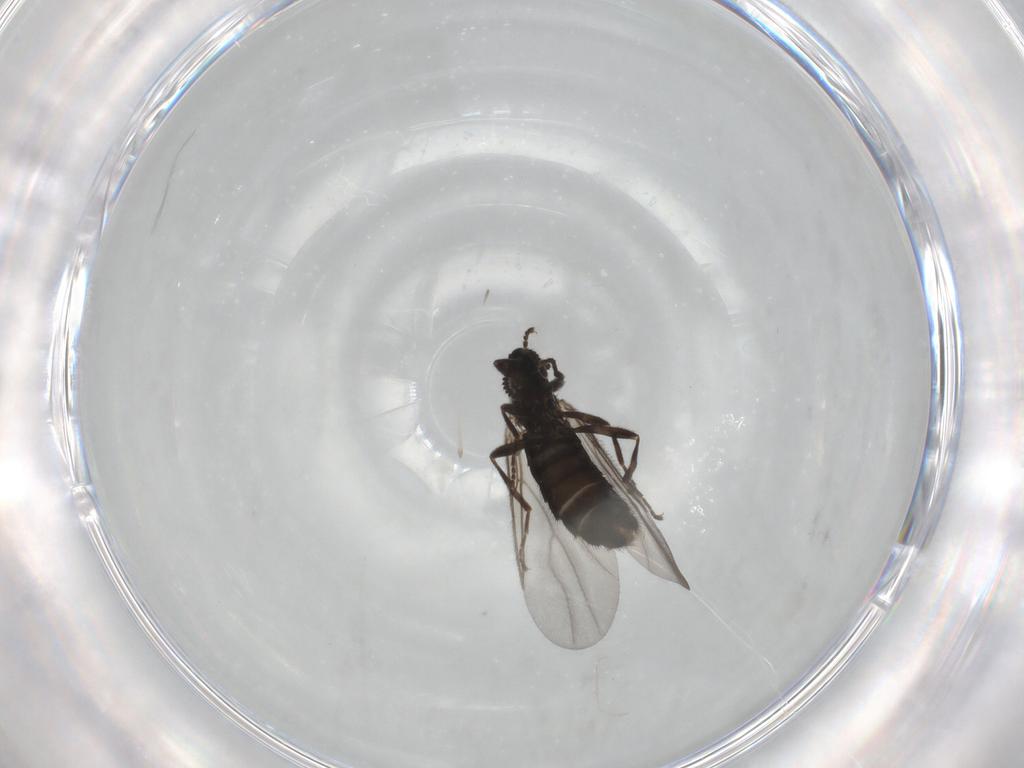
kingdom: Animalia
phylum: Arthropoda
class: Insecta
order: Diptera
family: Scatopsidae
